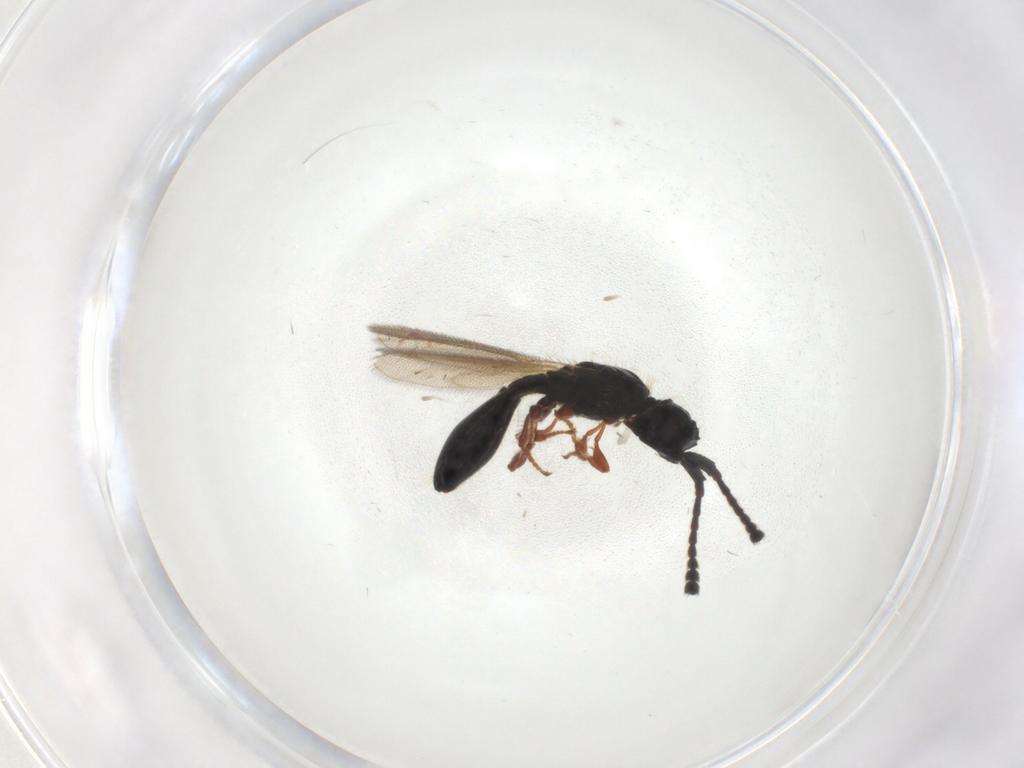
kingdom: Animalia
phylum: Arthropoda
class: Insecta
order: Hymenoptera
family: Diapriidae
